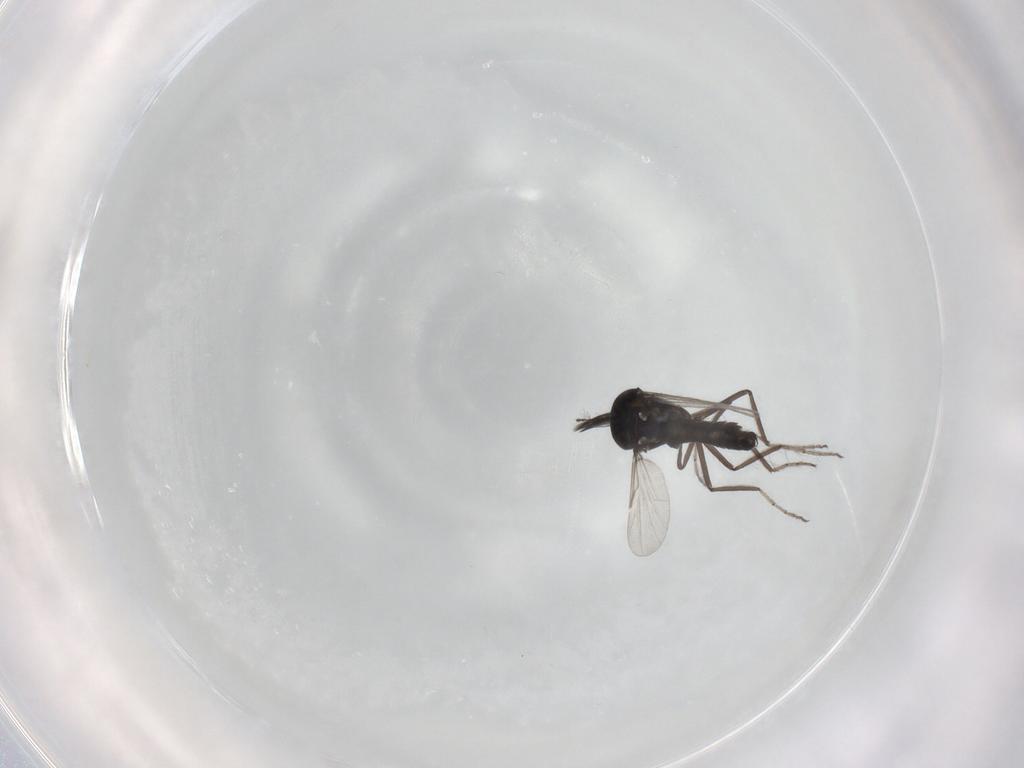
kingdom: Animalia
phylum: Arthropoda
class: Insecta
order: Diptera
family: Ceratopogonidae
